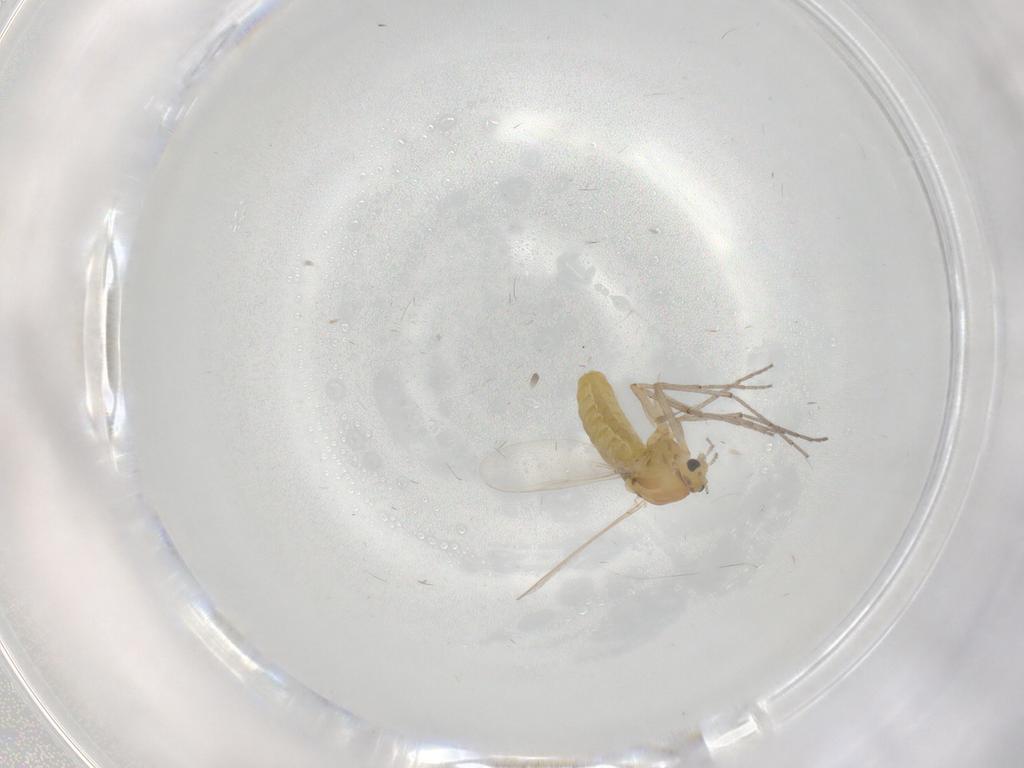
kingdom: Animalia
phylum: Arthropoda
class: Insecta
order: Diptera
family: Chironomidae
